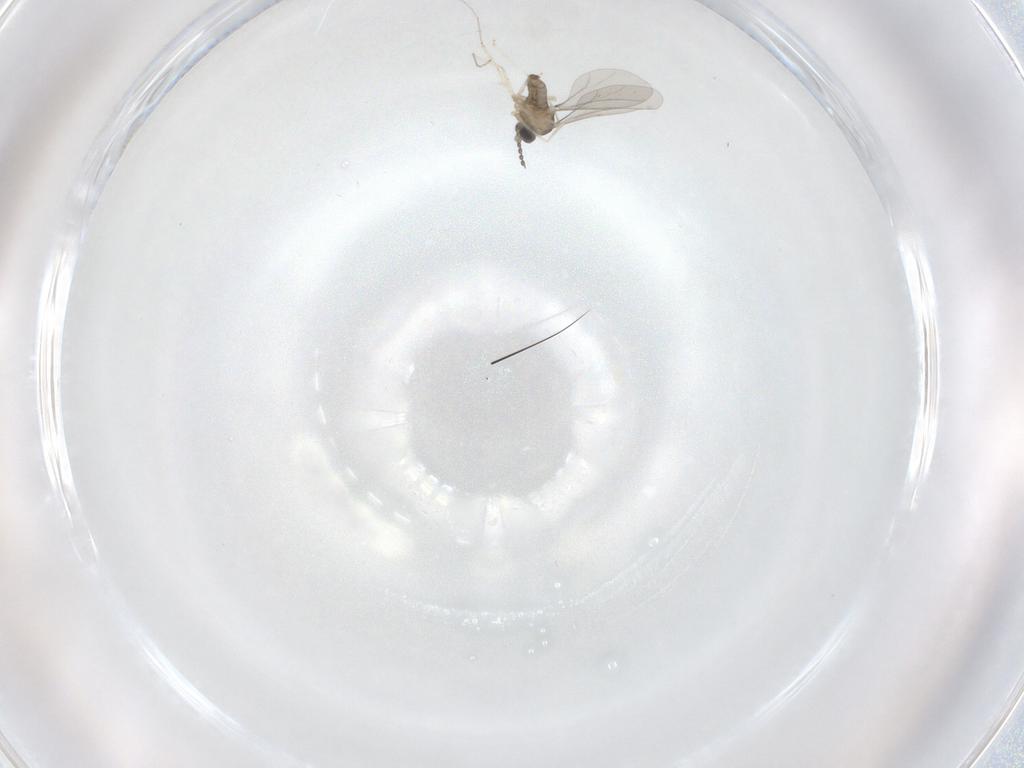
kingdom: Animalia
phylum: Arthropoda
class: Insecta
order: Diptera
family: Cecidomyiidae
